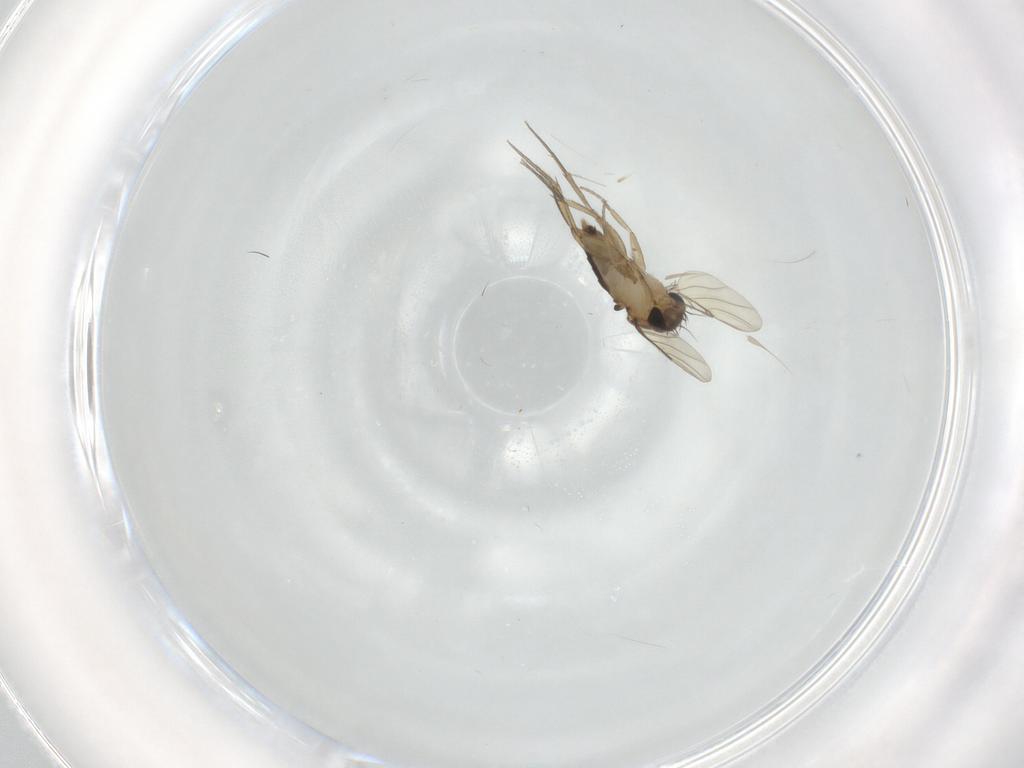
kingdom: Animalia
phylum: Arthropoda
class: Insecta
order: Diptera
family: Phoridae
